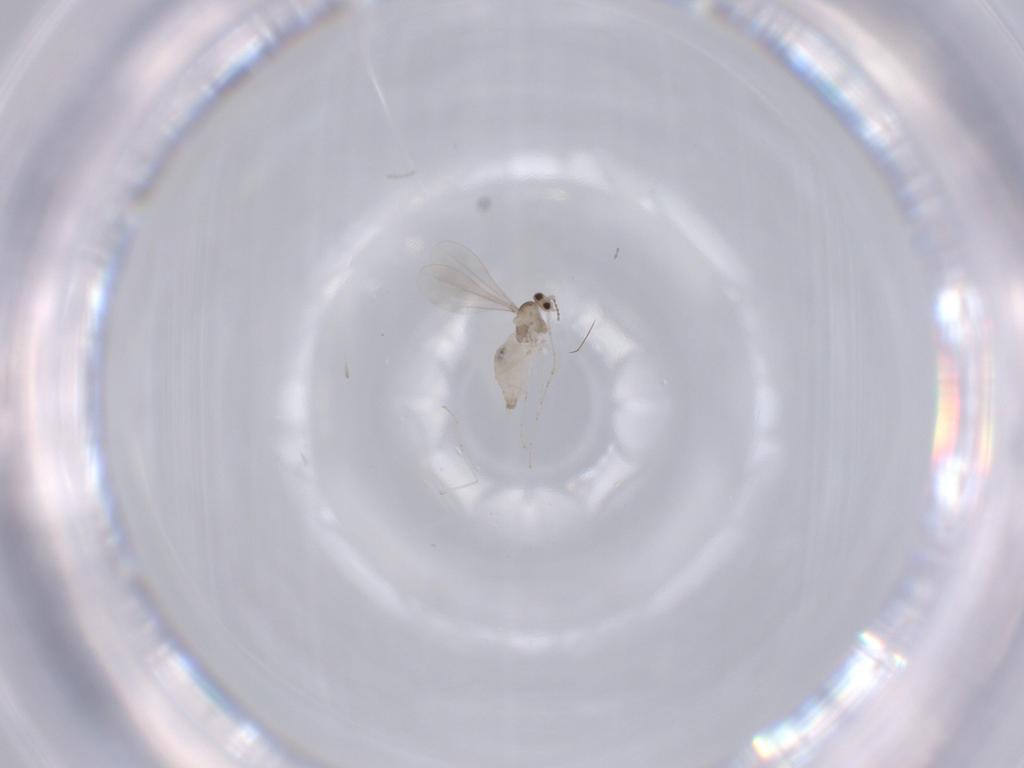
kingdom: Animalia
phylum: Arthropoda
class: Insecta
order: Diptera
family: Cecidomyiidae
